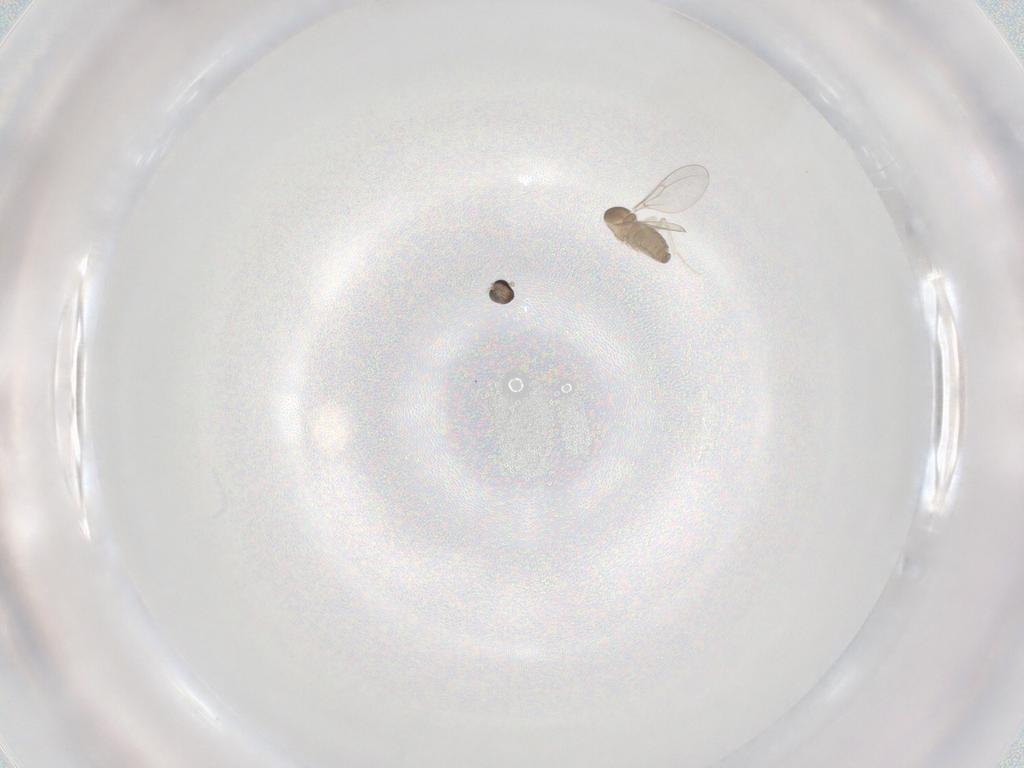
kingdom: Animalia
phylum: Arthropoda
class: Insecta
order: Diptera
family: Cecidomyiidae
